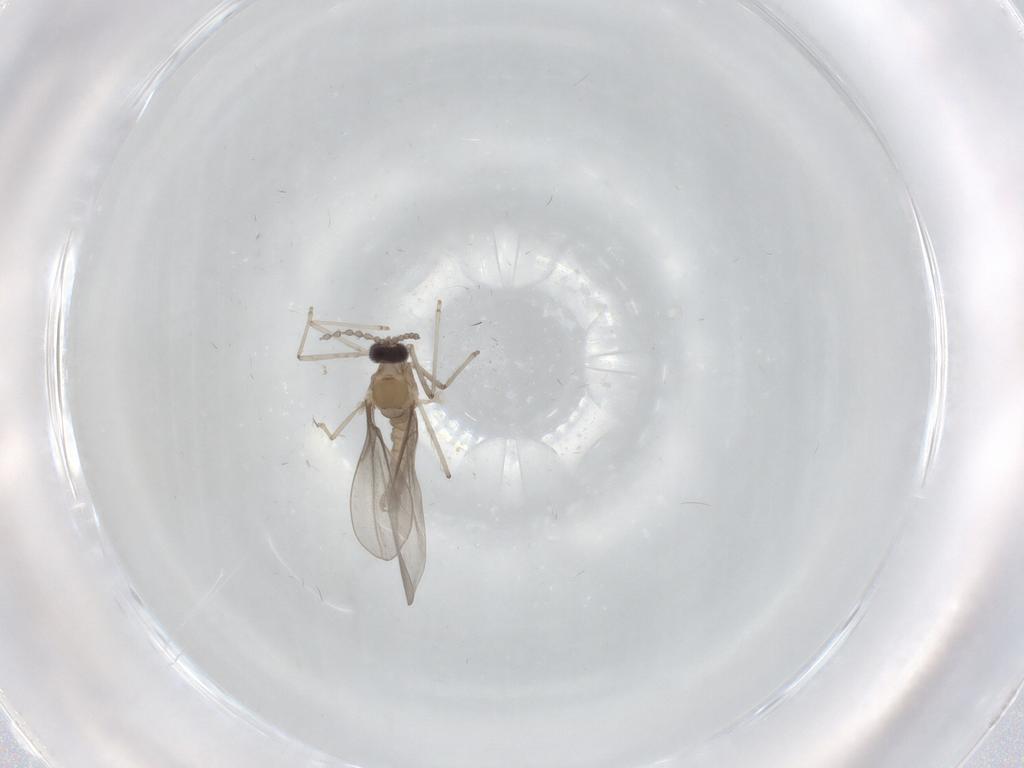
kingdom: Animalia
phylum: Arthropoda
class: Insecta
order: Diptera
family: Cecidomyiidae
